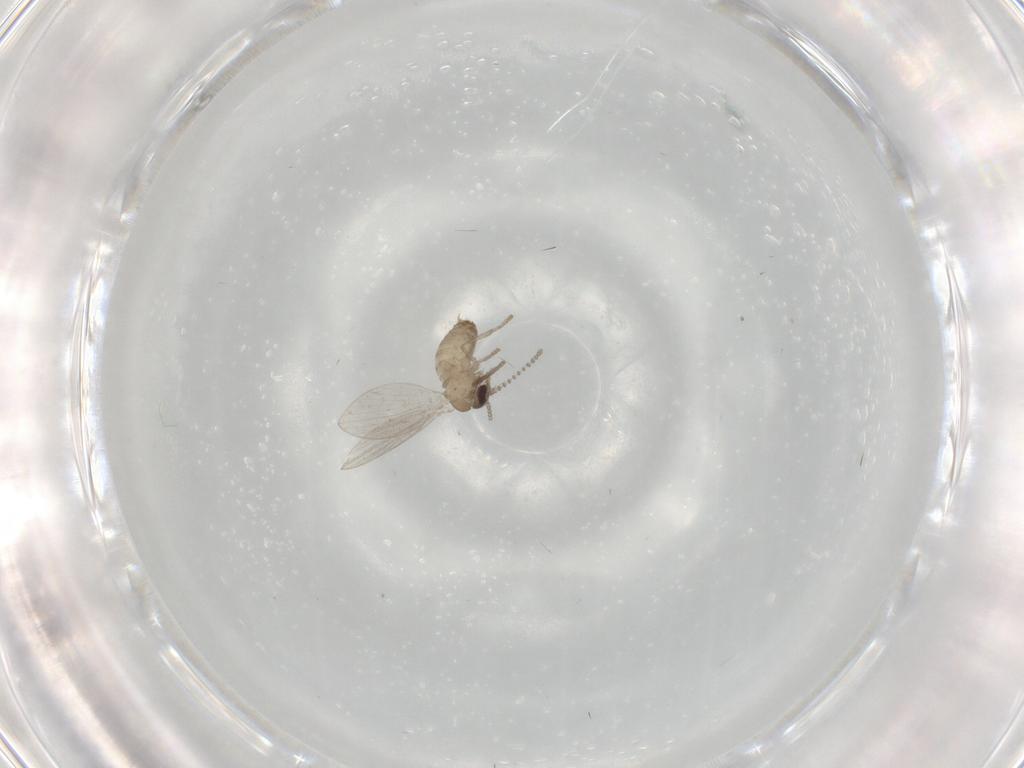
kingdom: Animalia
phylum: Arthropoda
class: Insecta
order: Diptera
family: Psychodidae
